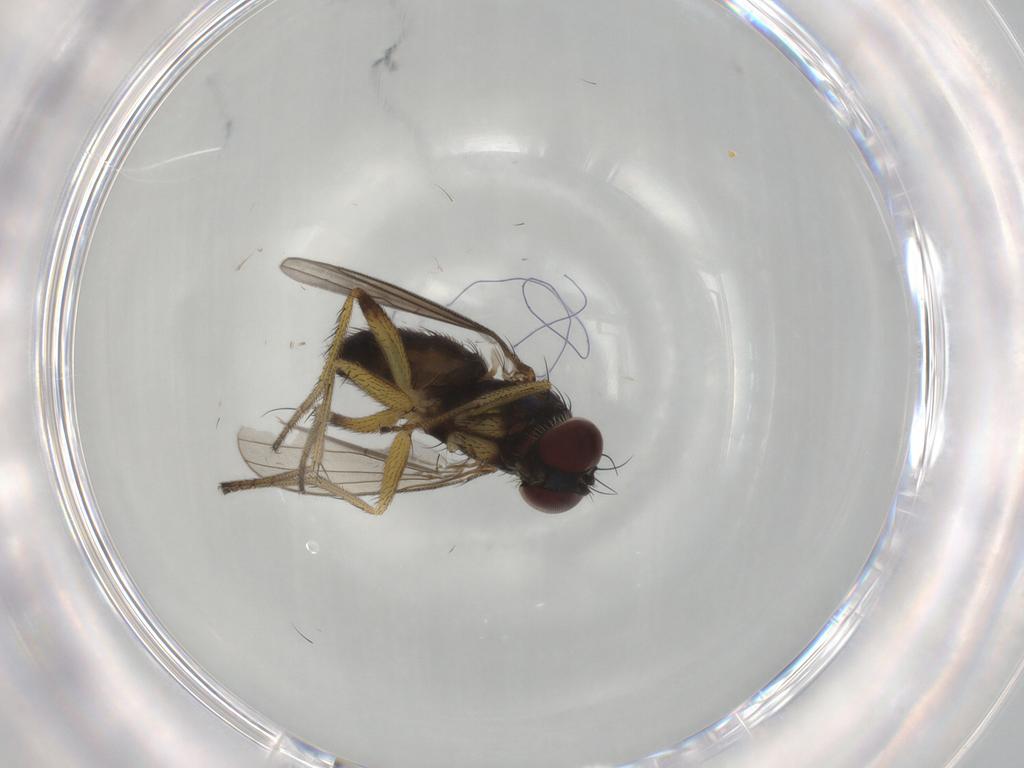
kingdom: Animalia
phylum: Arthropoda
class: Insecta
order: Diptera
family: Dolichopodidae
